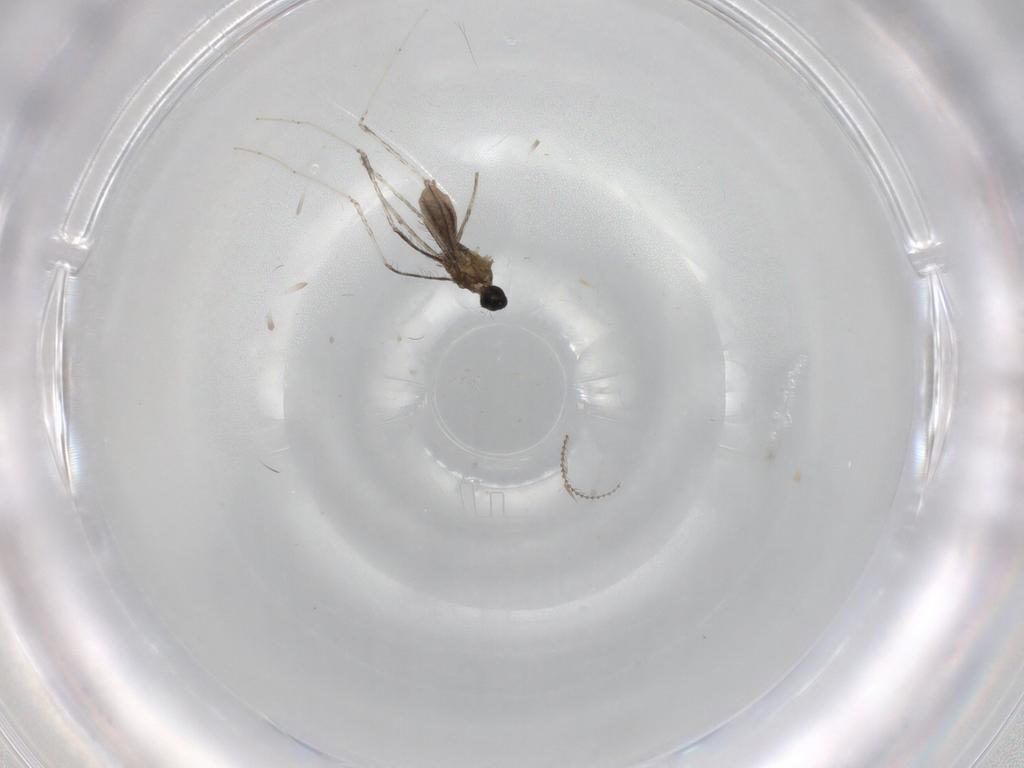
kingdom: Animalia
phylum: Arthropoda
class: Insecta
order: Diptera
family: Cecidomyiidae
